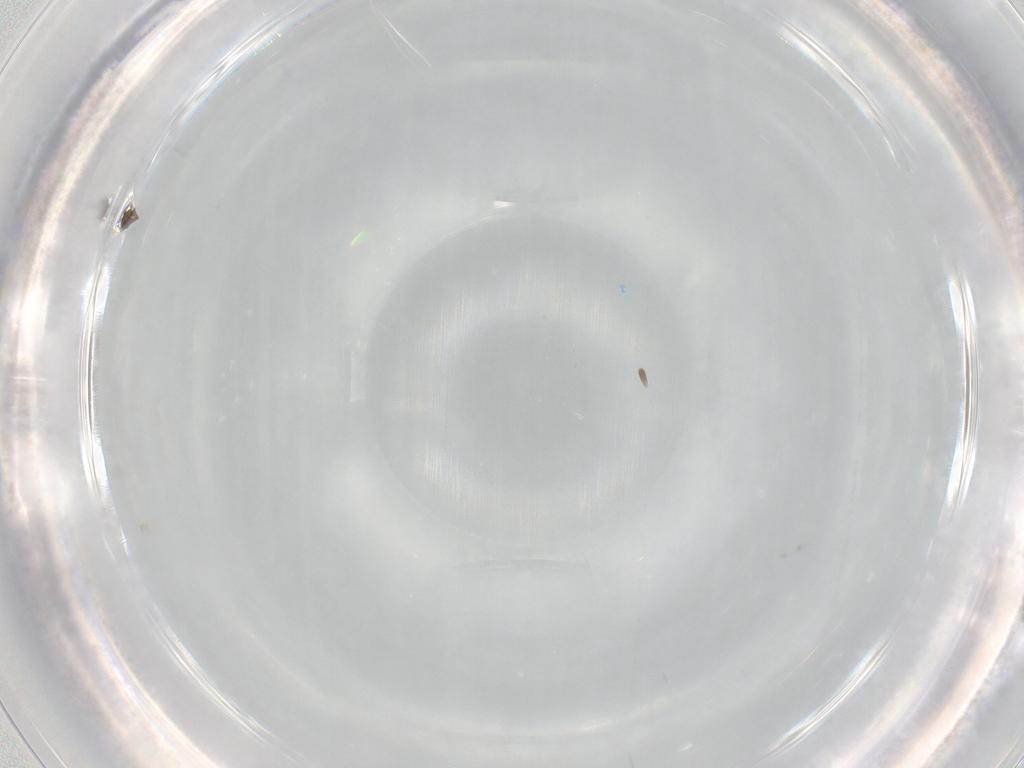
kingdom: Animalia
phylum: Arthropoda
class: Insecta
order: Hymenoptera
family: Mymaridae
